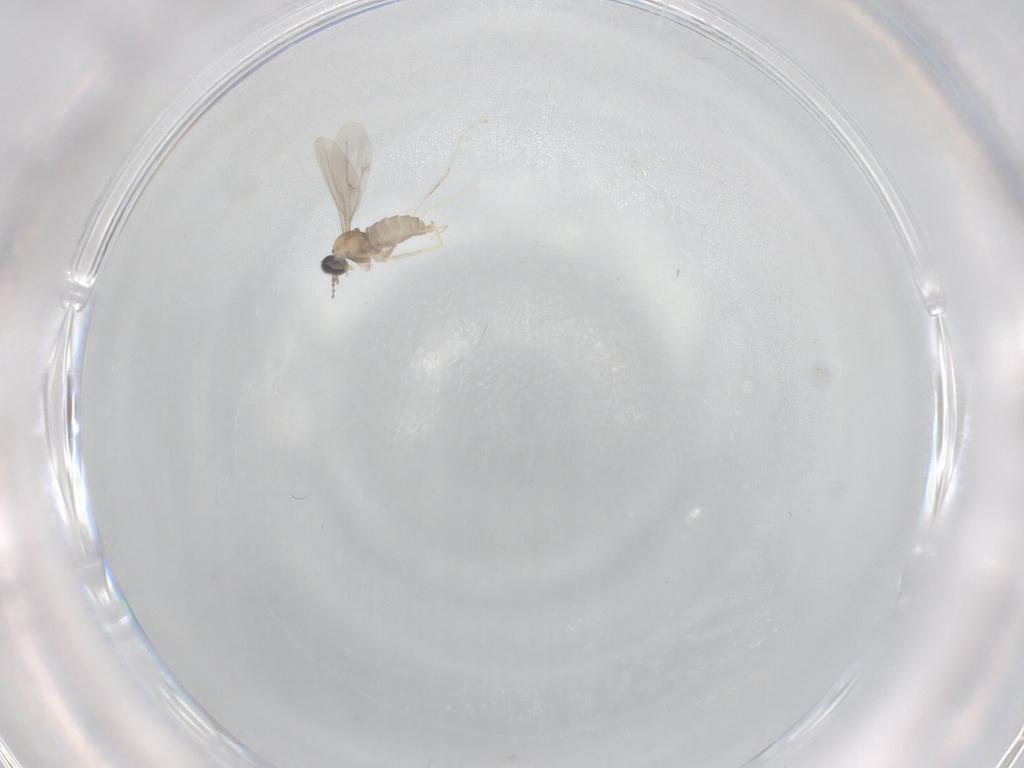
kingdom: Animalia
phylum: Arthropoda
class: Insecta
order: Diptera
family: Cecidomyiidae
